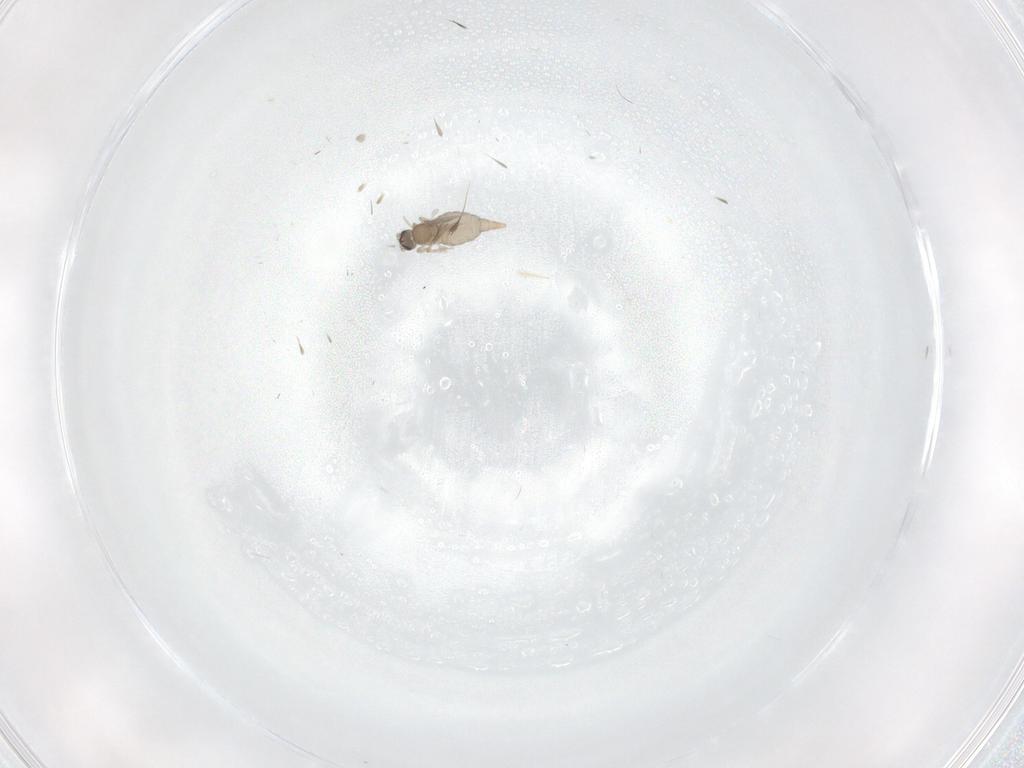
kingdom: Animalia
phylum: Arthropoda
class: Insecta
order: Diptera
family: Cecidomyiidae
